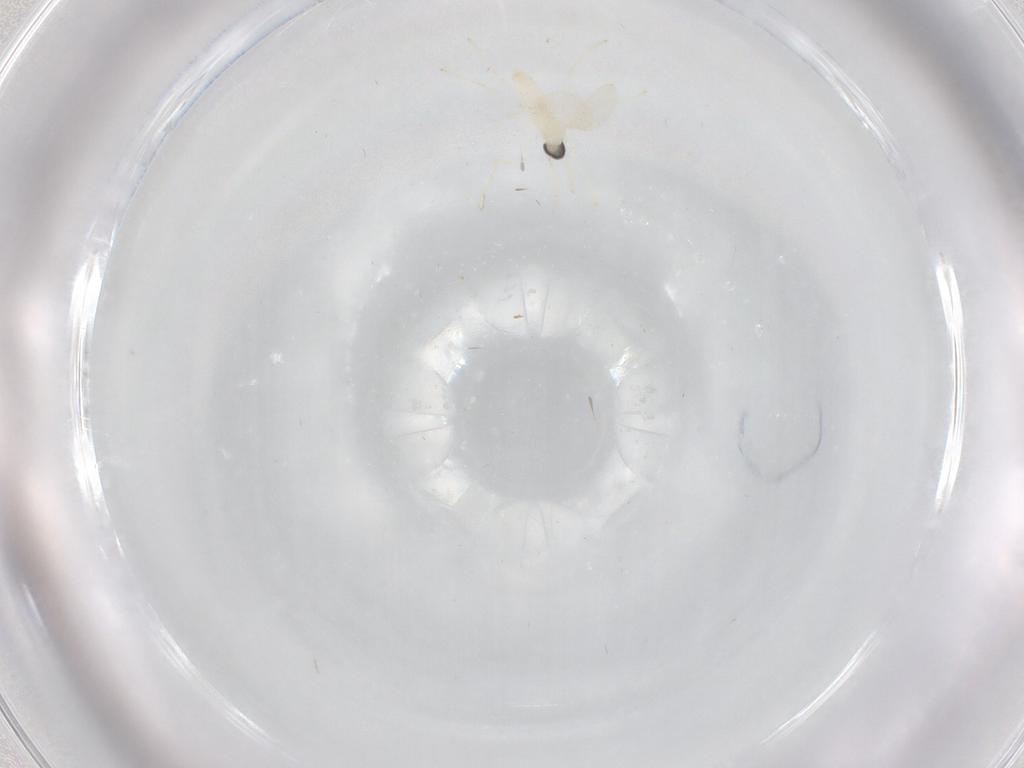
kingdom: Animalia
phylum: Arthropoda
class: Insecta
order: Diptera
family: Cecidomyiidae
